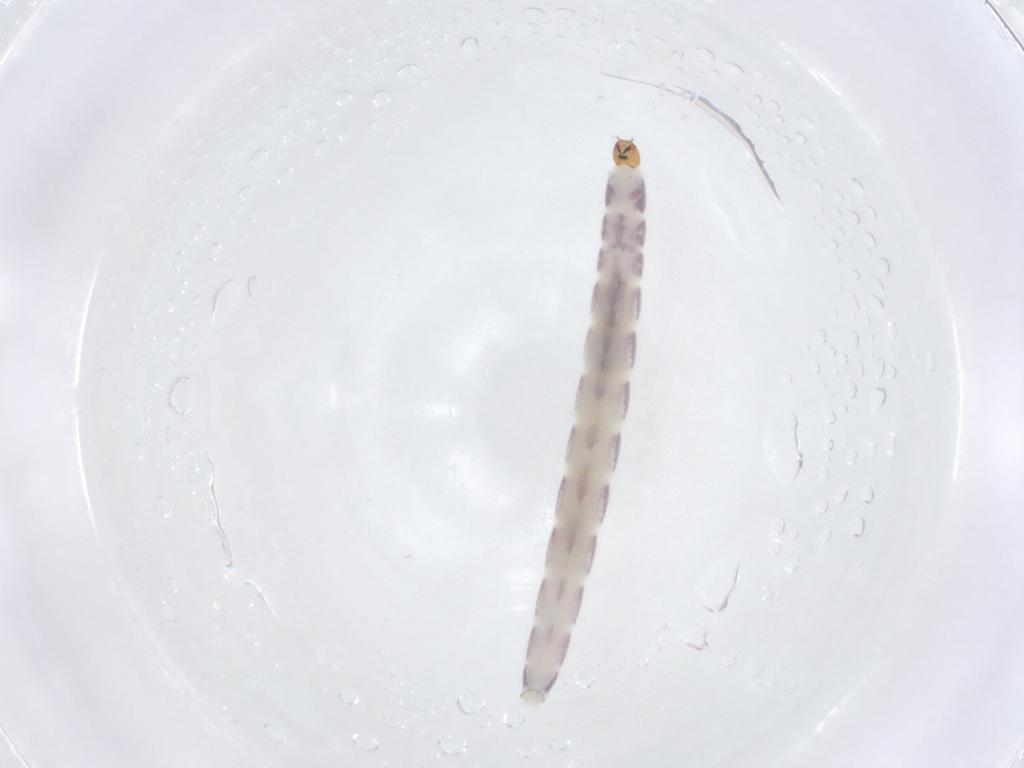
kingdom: Animalia
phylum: Arthropoda
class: Insecta
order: Diptera
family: Chironomidae
